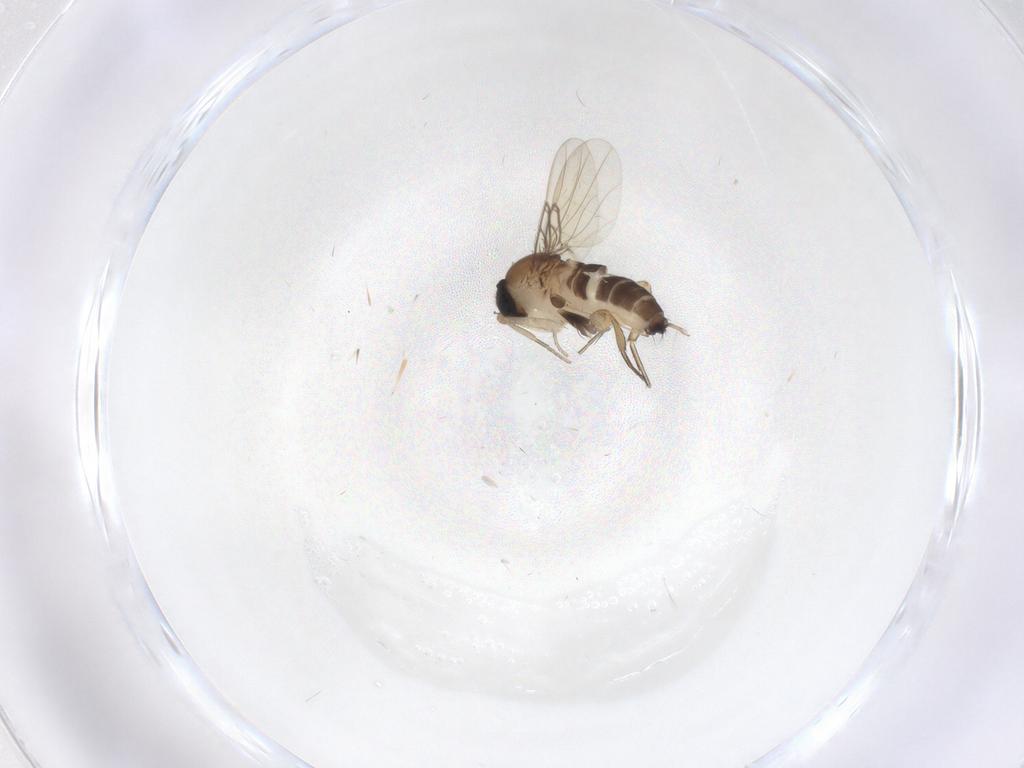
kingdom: Animalia
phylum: Arthropoda
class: Insecta
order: Diptera
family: Phoridae
